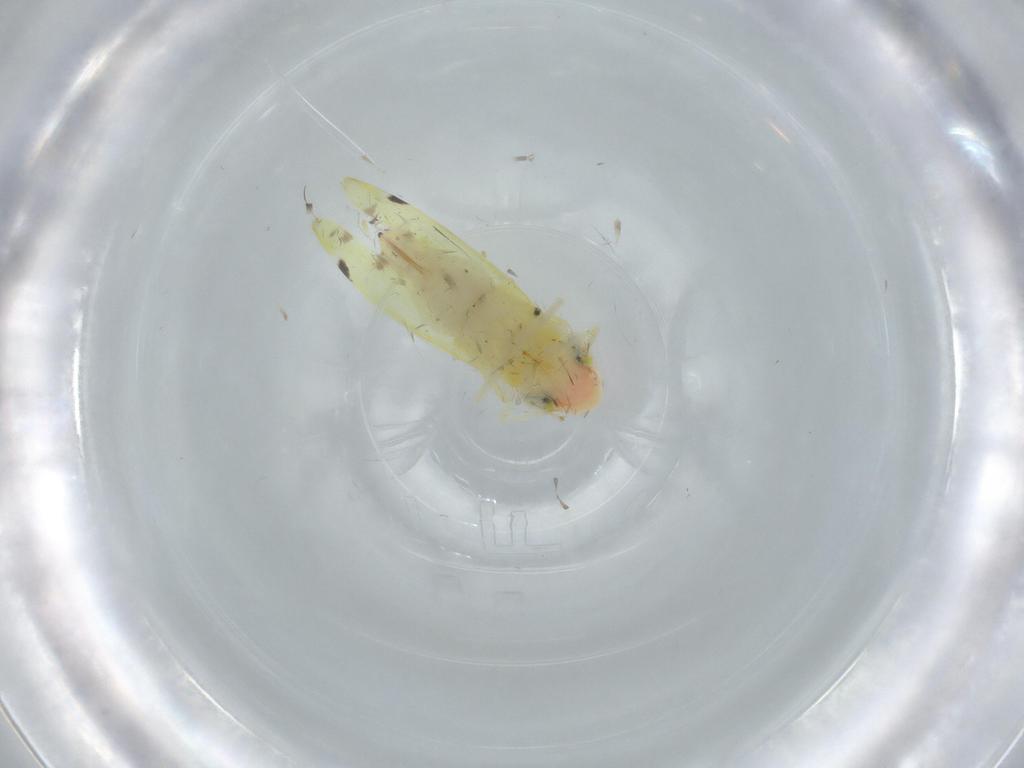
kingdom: Animalia
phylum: Arthropoda
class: Insecta
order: Hemiptera
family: Cicadellidae
